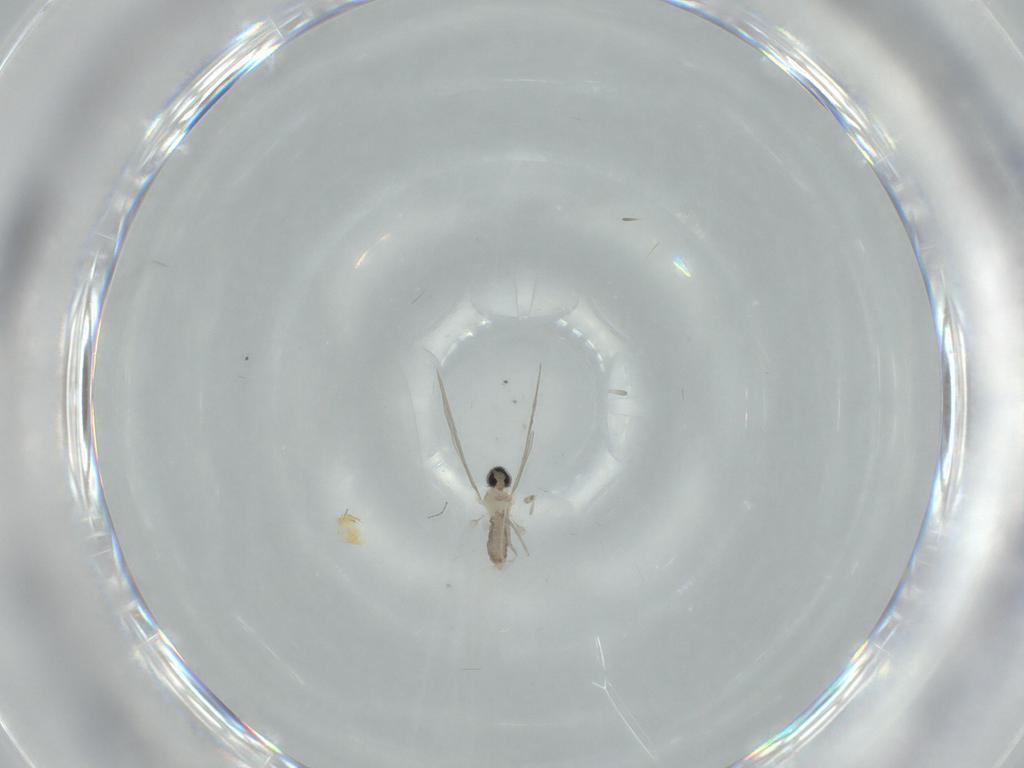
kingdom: Animalia
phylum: Arthropoda
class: Insecta
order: Diptera
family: Cecidomyiidae
